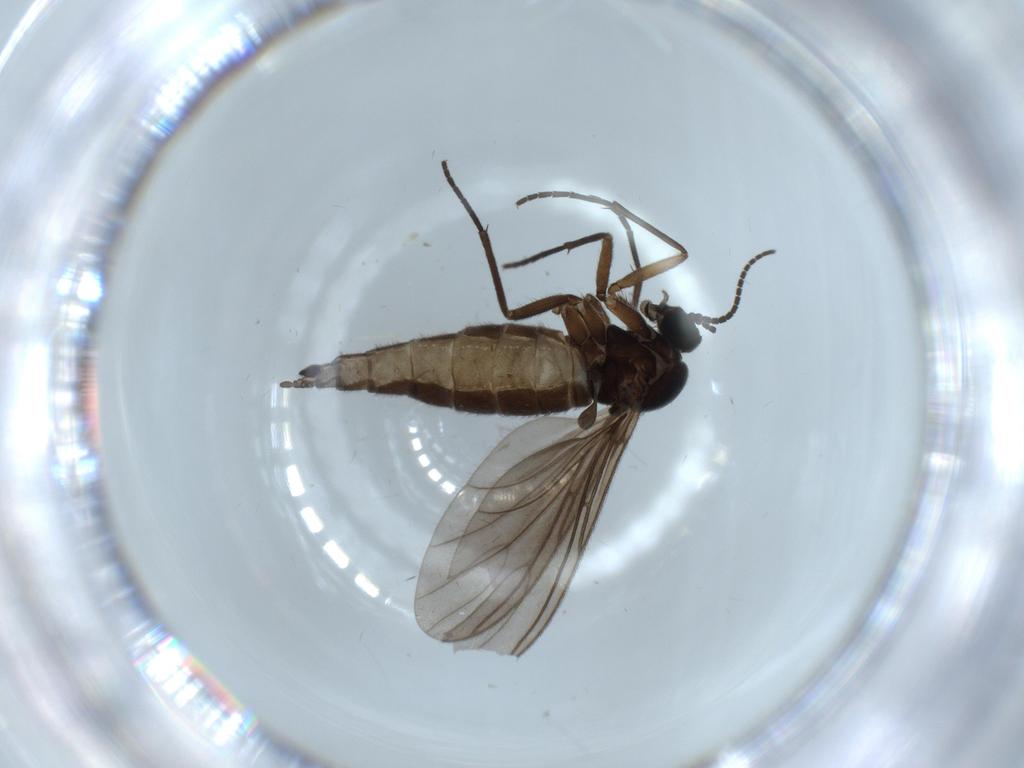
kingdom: Animalia
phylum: Arthropoda
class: Insecta
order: Diptera
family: Sciaridae
